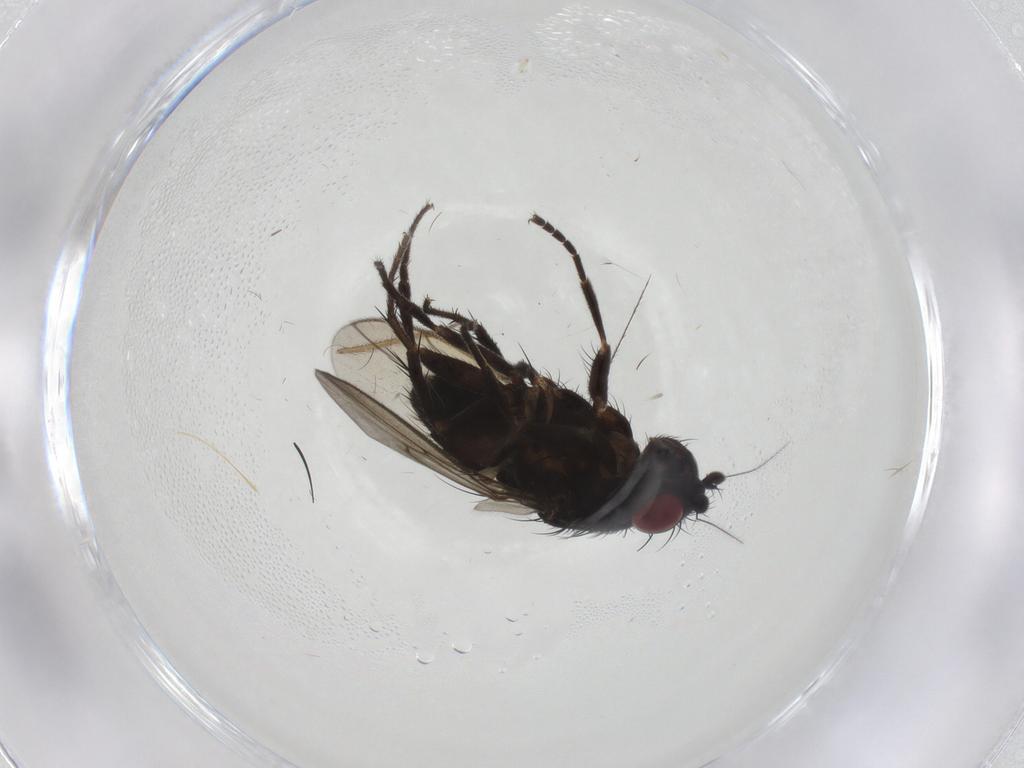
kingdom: Animalia
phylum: Arthropoda
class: Insecta
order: Diptera
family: Sphaeroceridae
